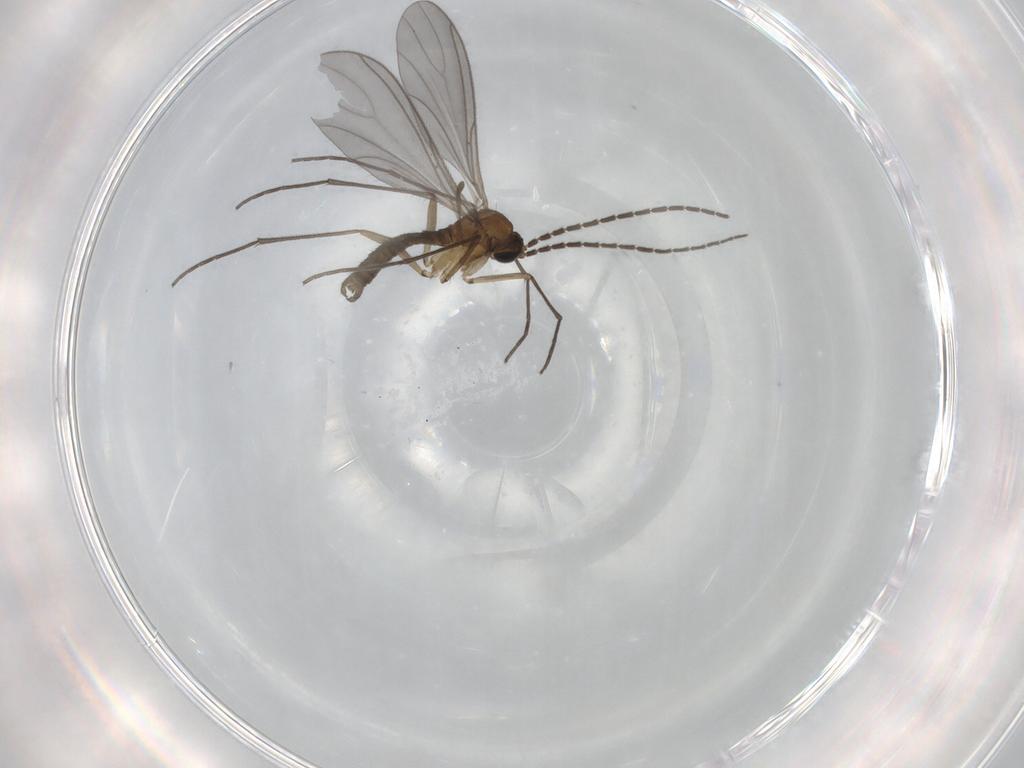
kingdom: Animalia
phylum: Arthropoda
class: Insecta
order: Diptera
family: Sciaridae
